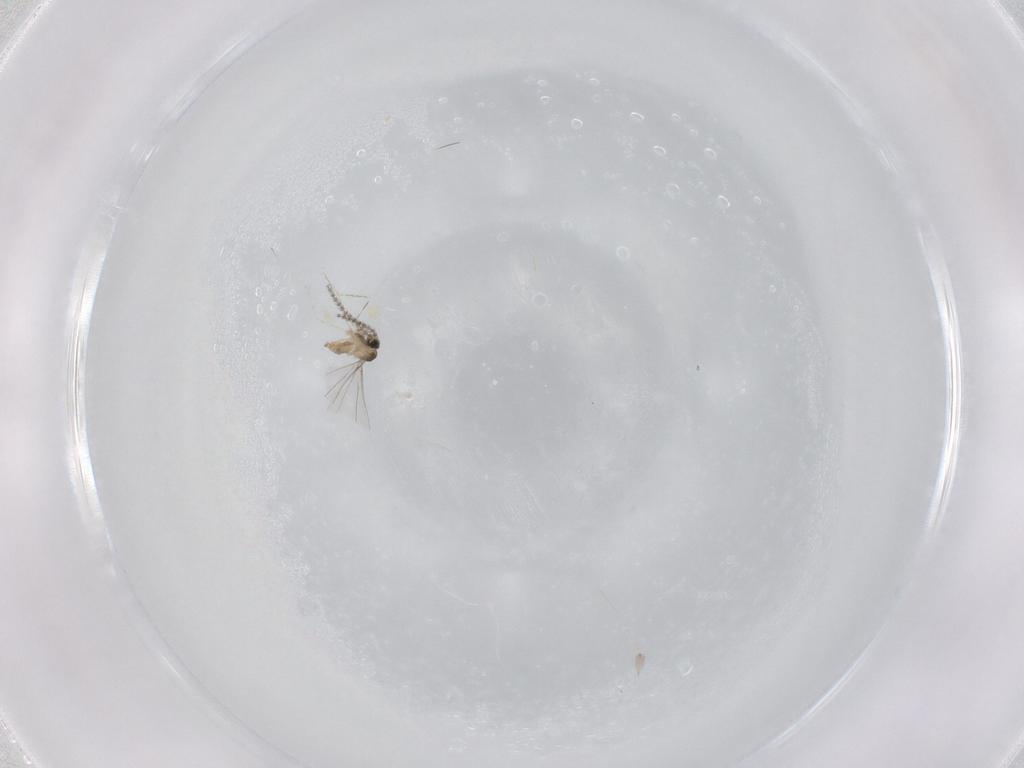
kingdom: Animalia
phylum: Arthropoda
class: Insecta
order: Diptera
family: Cecidomyiidae
